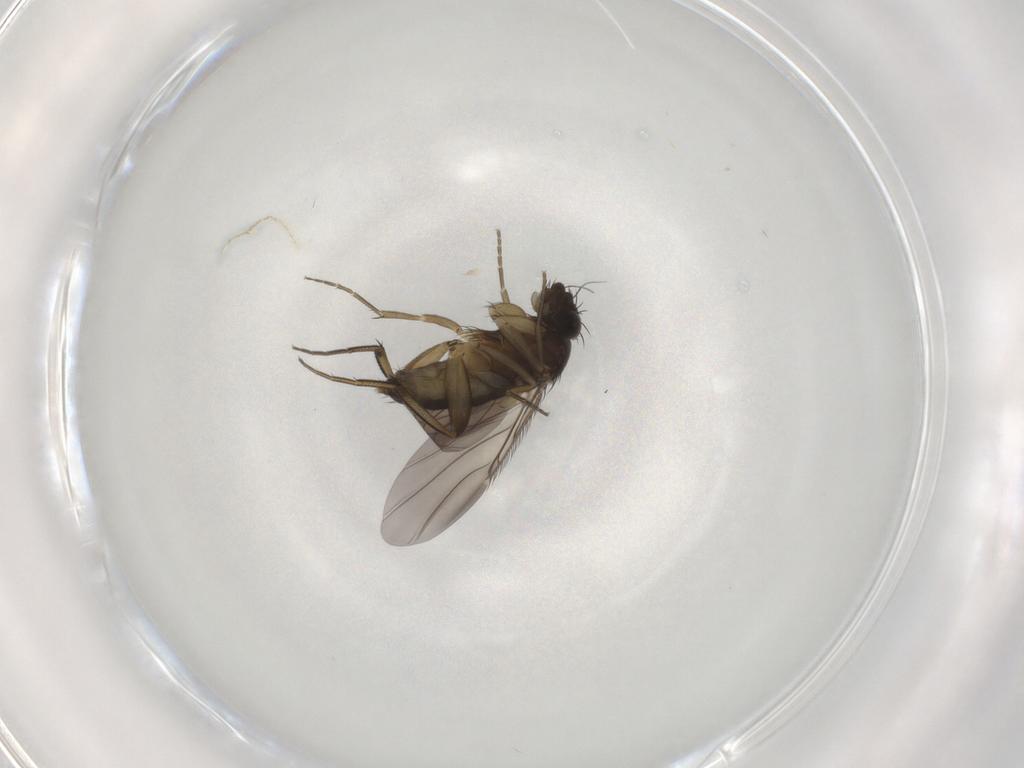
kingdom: Animalia
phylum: Arthropoda
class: Insecta
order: Diptera
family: Phoridae
